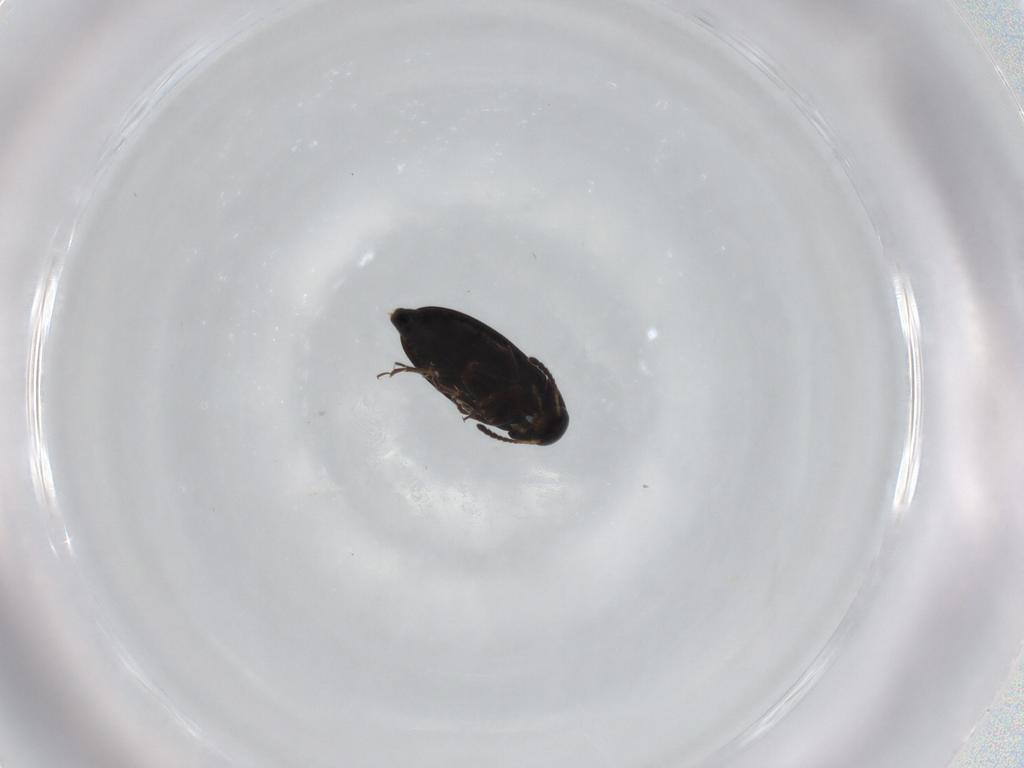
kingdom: Animalia
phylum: Arthropoda
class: Insecta
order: Coleoptera
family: Scraptiidae
